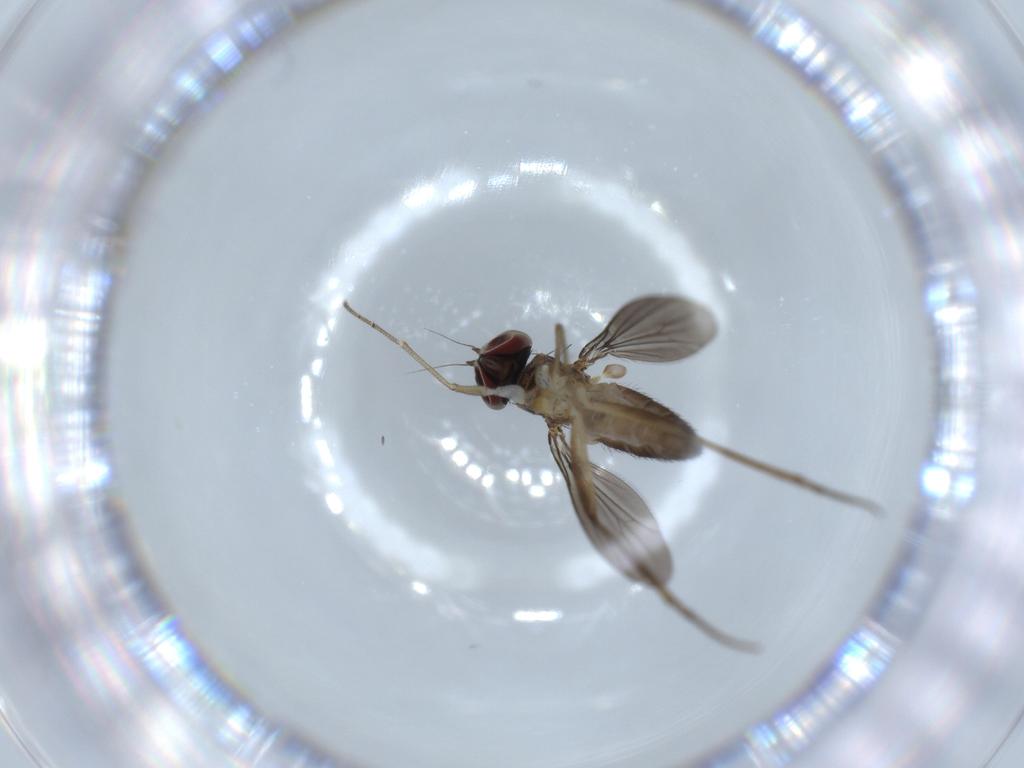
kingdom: Animalia
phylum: Arthropoda
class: Insecta
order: Diptera
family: Dolichopodidae
